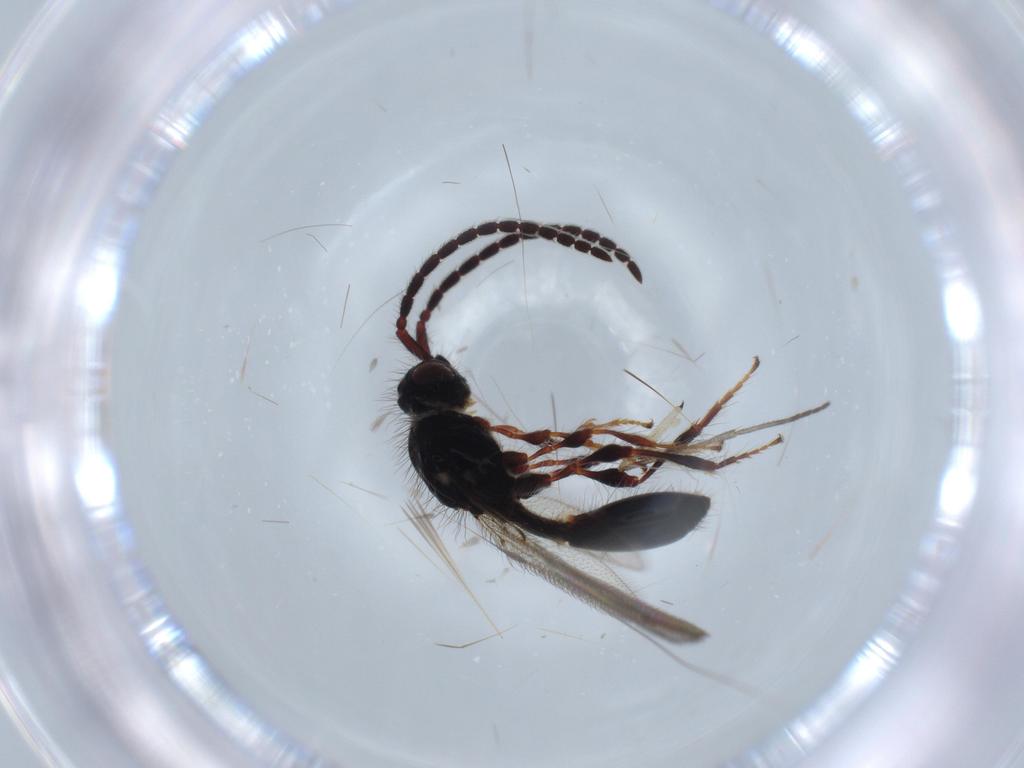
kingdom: Animalia
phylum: Arthropoda
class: Insecta
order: Hymenoptera
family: Diapriidae
